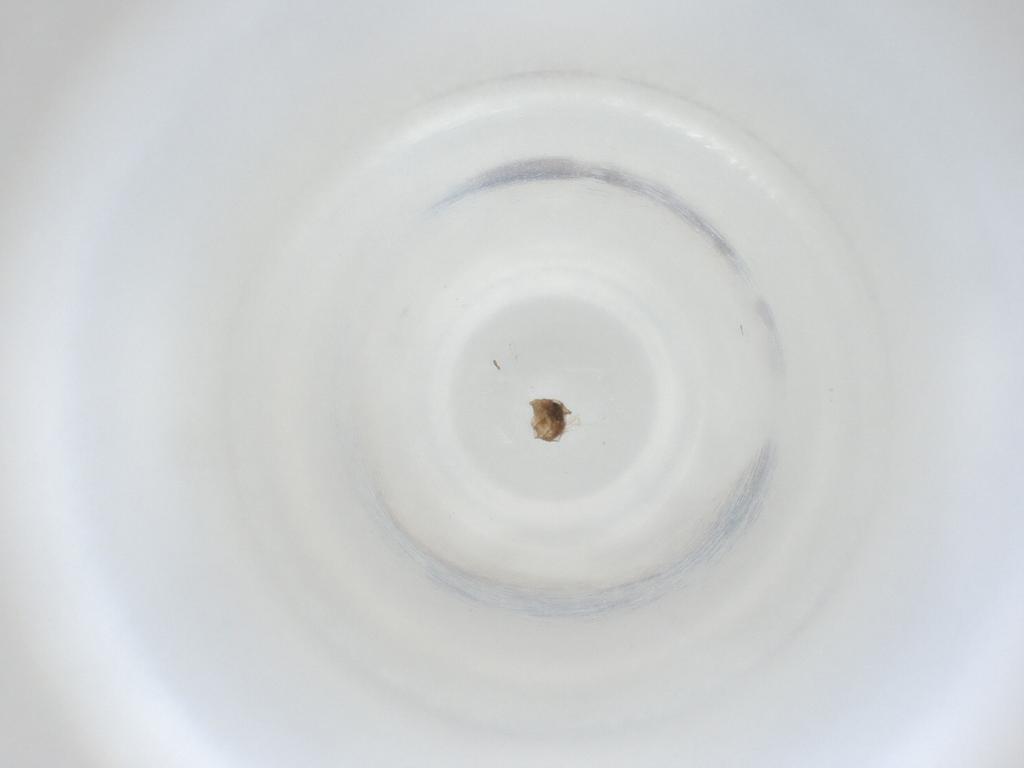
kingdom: Animalia
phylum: Arthropoda
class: Insecta
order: Diptera
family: Cecidomyiidae
